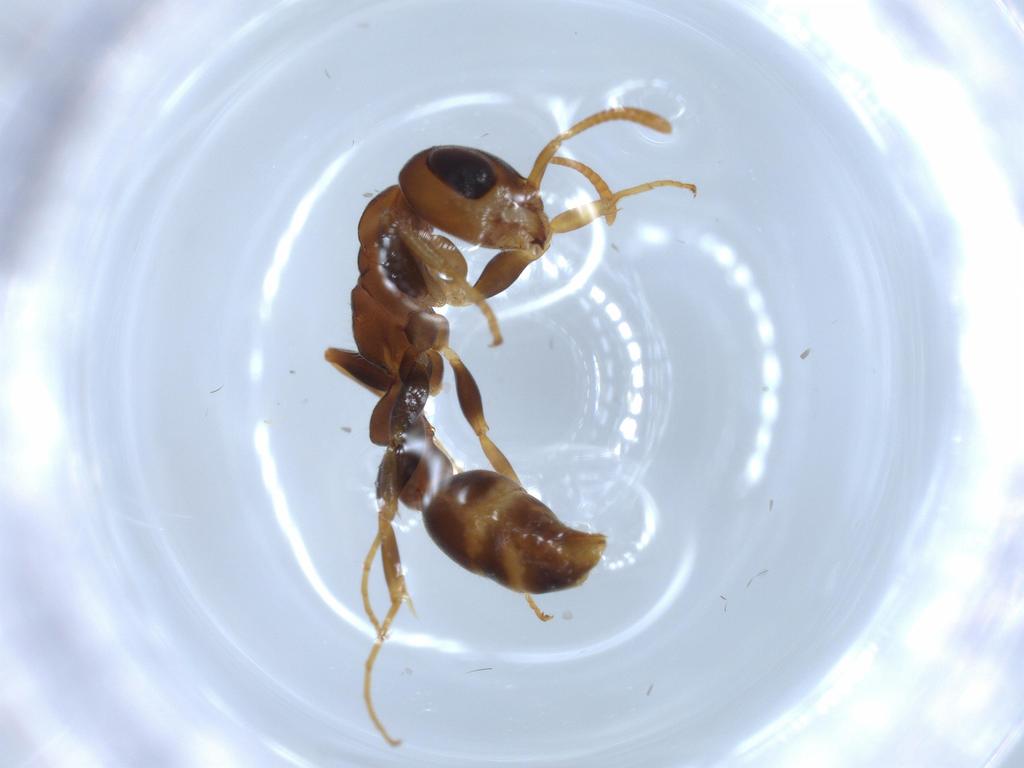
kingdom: Animalia
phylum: Arthropoda
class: Insecta
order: Hymenoptera
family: Formicidae
